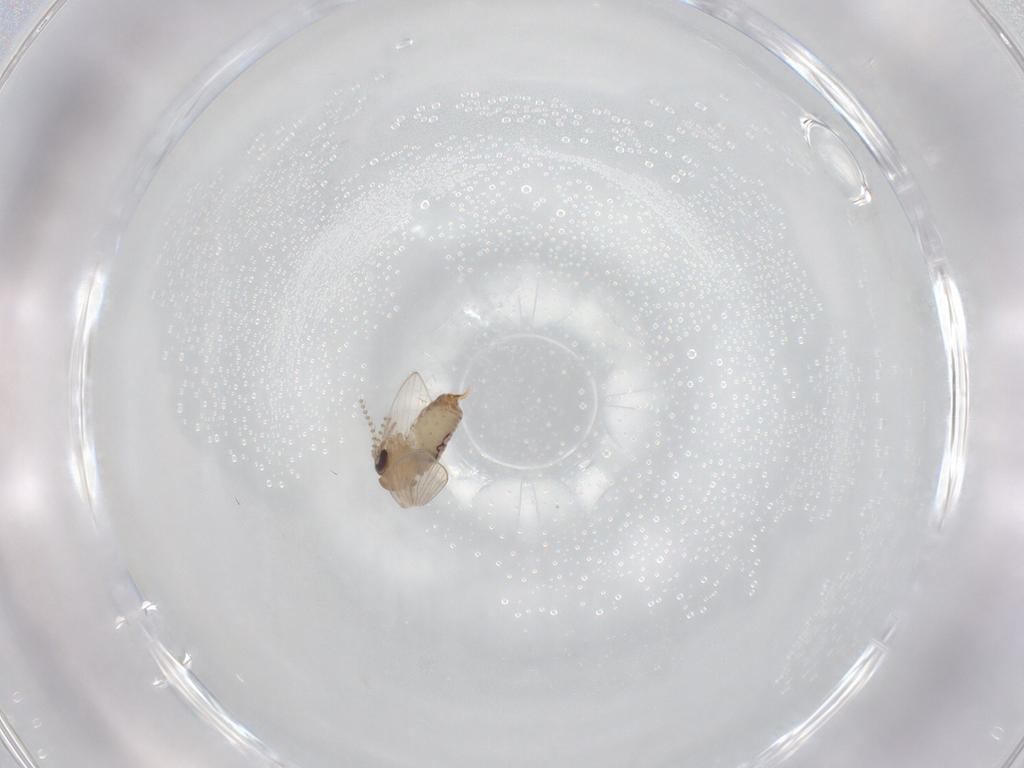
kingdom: Animalia
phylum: Arthropoda
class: Insecta
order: Diptera
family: Psychodidae
